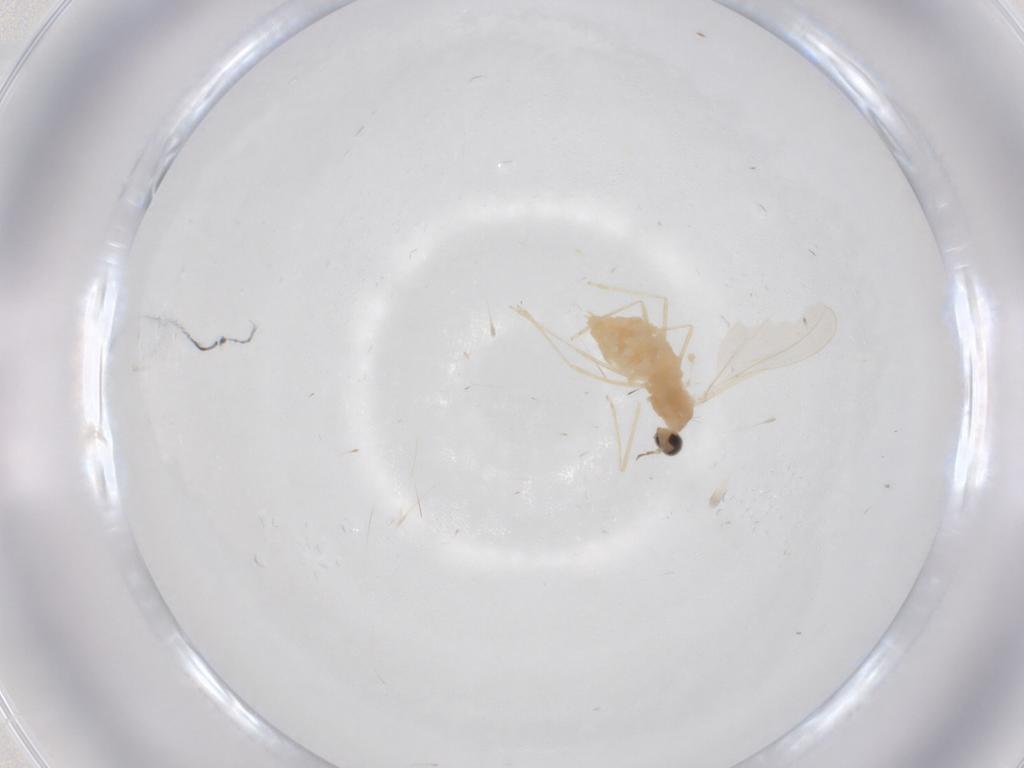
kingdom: Animalia
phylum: Arthropoda
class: Insecta
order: Diptera
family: Cecidomyiidae
